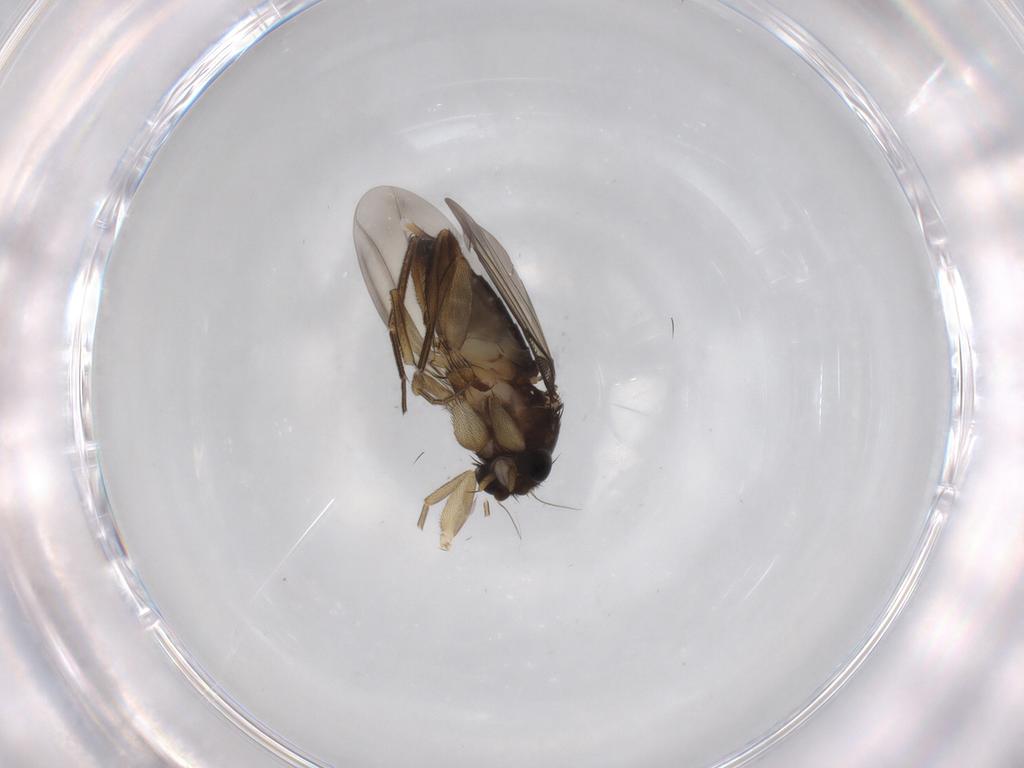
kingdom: Animalia
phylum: Arthropoda
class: Insecta
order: Diptera
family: Phoridae
